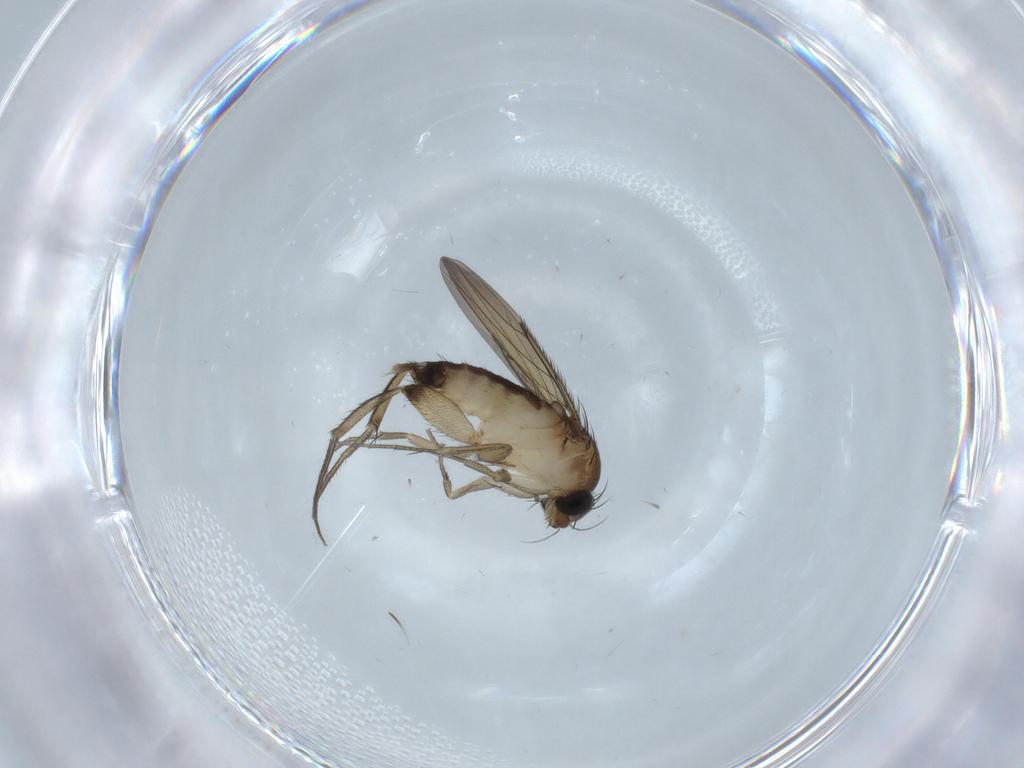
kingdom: Animalia
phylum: Arthropoda
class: Insecta
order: Diptera
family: Phoridae
